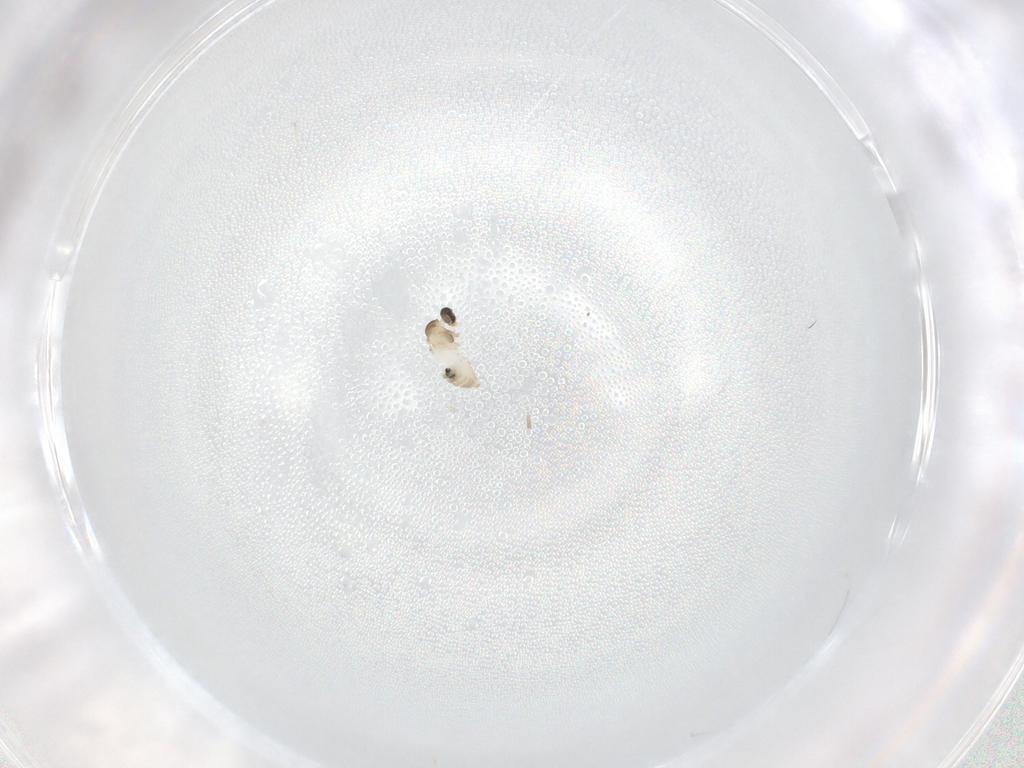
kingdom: Animalia
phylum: Arthropoda
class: Insecta
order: Diptera
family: Cecidomyiidae
